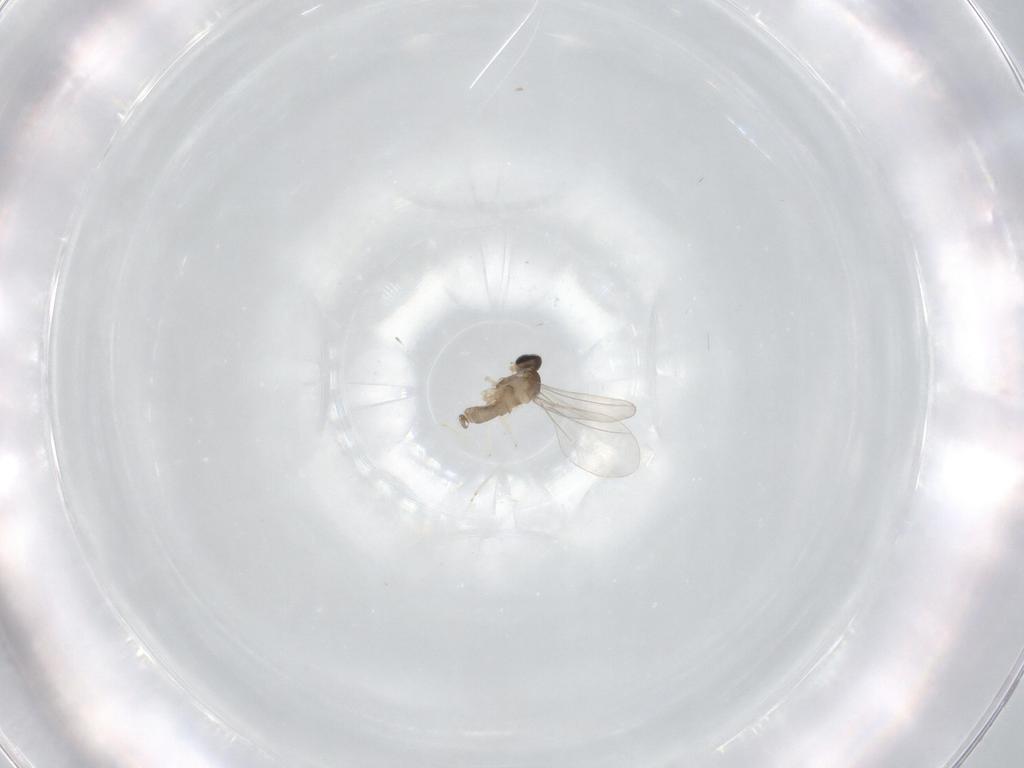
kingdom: Animalia
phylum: Arthropoda
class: Insecta
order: Diptera
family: Cecidomyiidae
